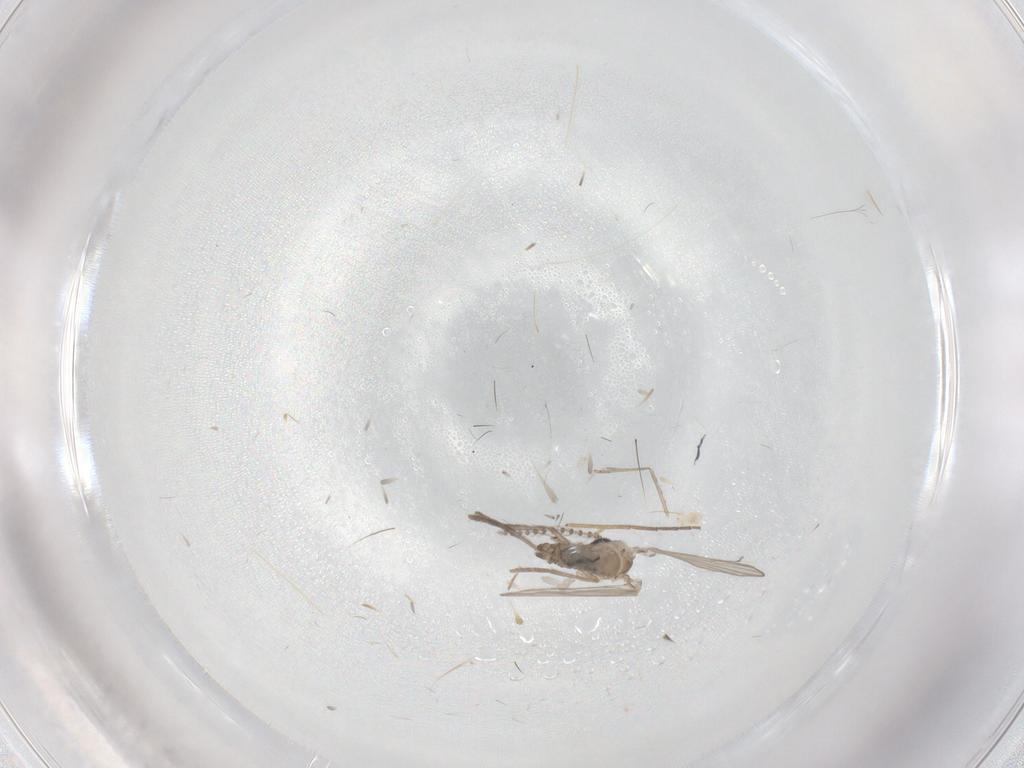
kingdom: Animalia
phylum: Arthropoda
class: Insecta
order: Diptera
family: Psychodidae
